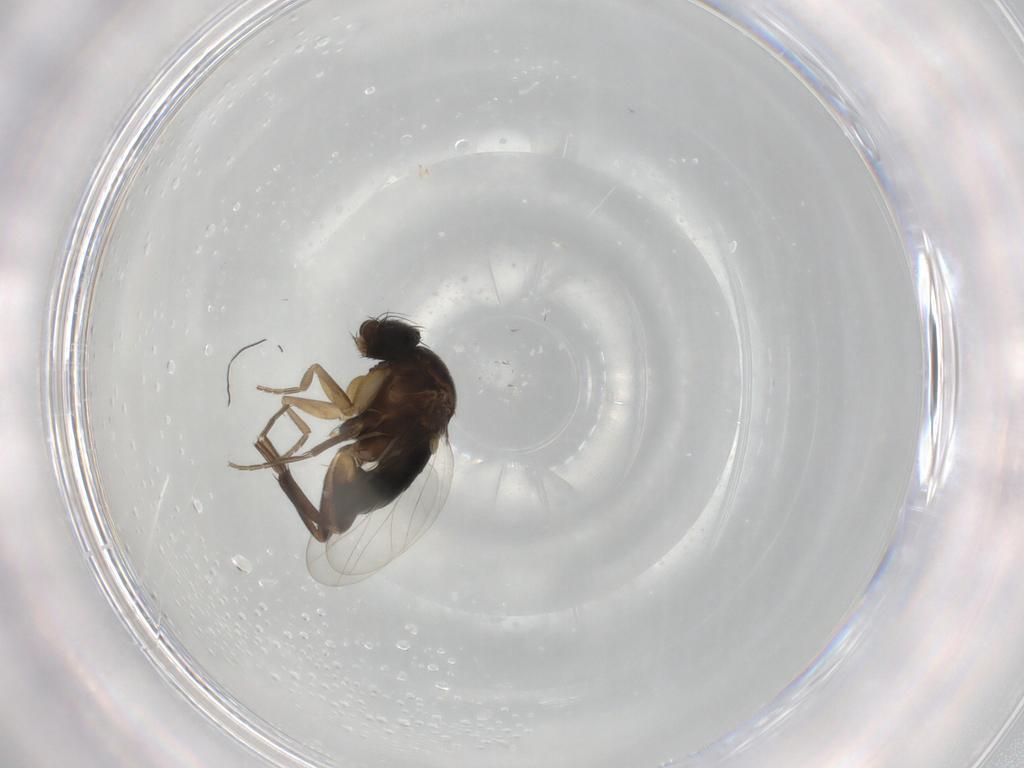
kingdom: Animalia
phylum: Arthropoda
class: Insecta
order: Diptera
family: Phoridae
